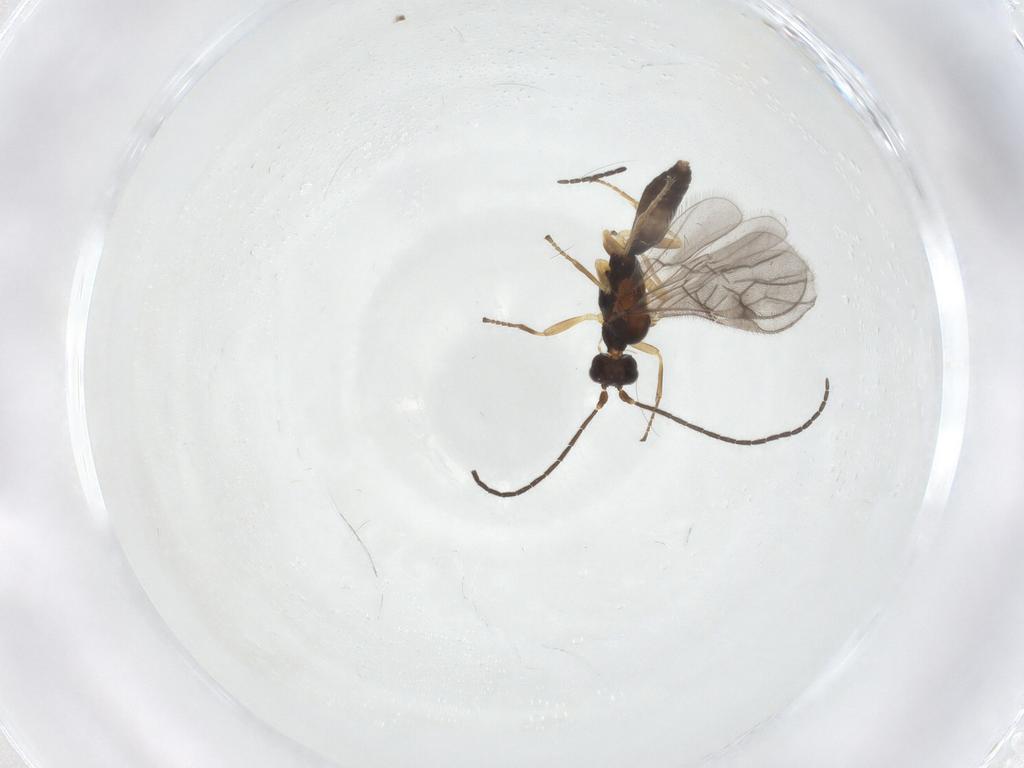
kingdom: Animalia
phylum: Arthropoda
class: Insecta
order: Hymenoptera
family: Braconidae
